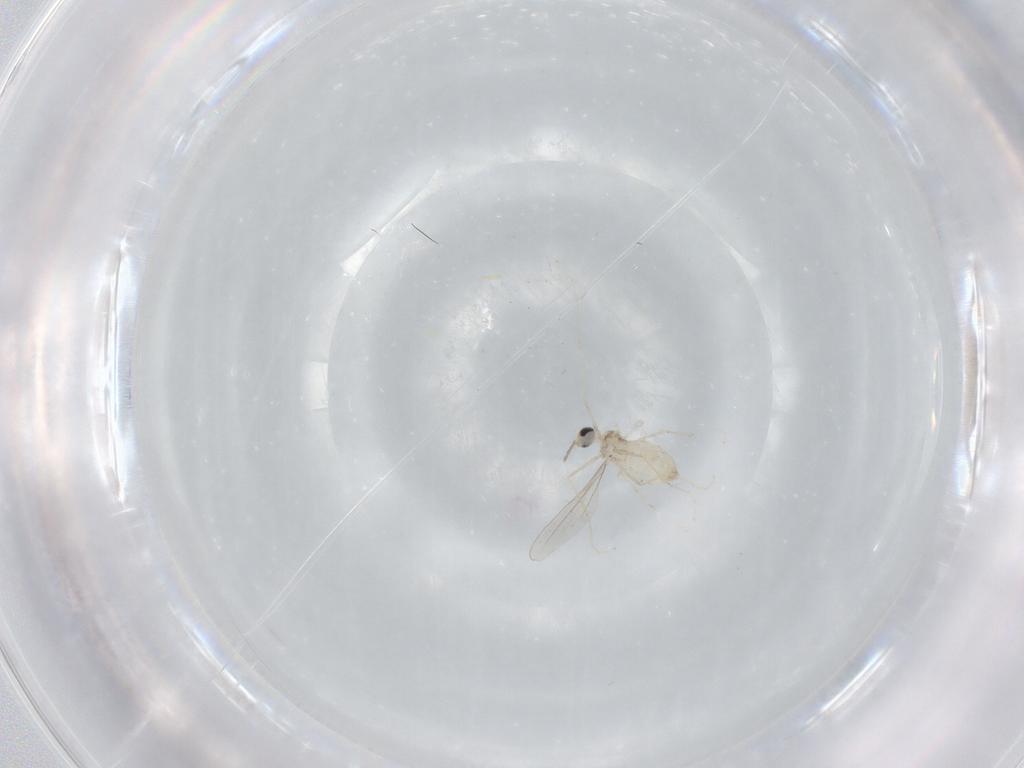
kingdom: Animalia
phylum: Arthropoda
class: Insecta
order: Diptera
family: Cecidomyiidae
